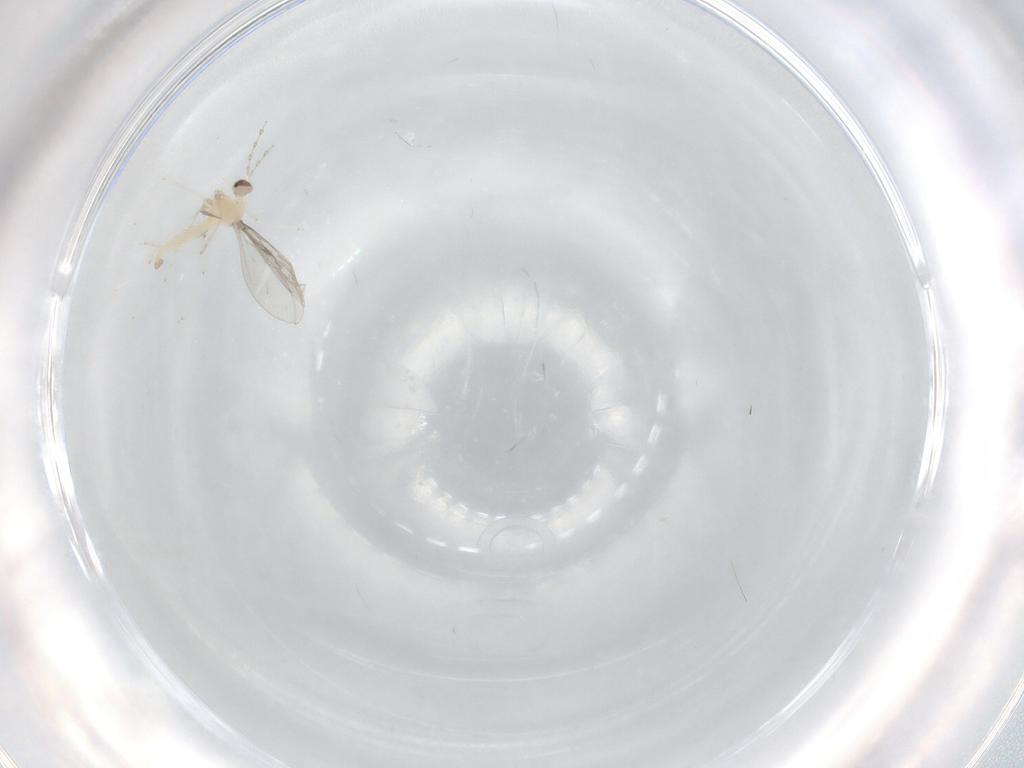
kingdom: Animalia
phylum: Arthropoda
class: Insecta
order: Diptera
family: Cecidomyiidae
